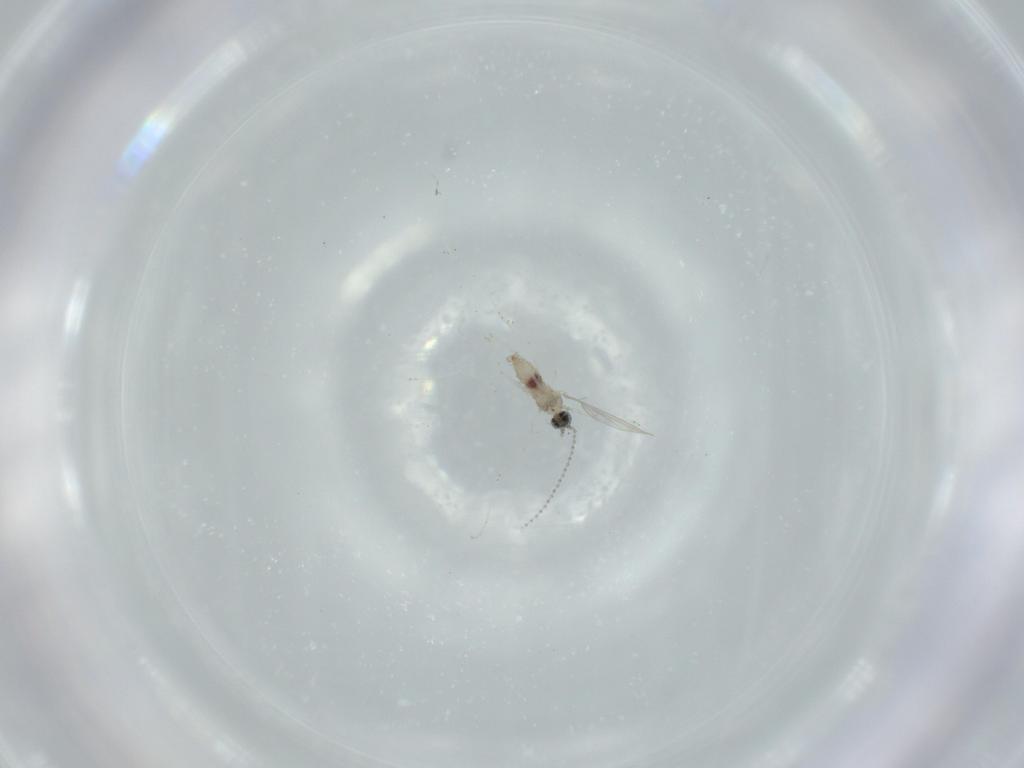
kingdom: Animalia
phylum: Arthropoda
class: Insecta
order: Diptera
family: Cecidomyiidae
